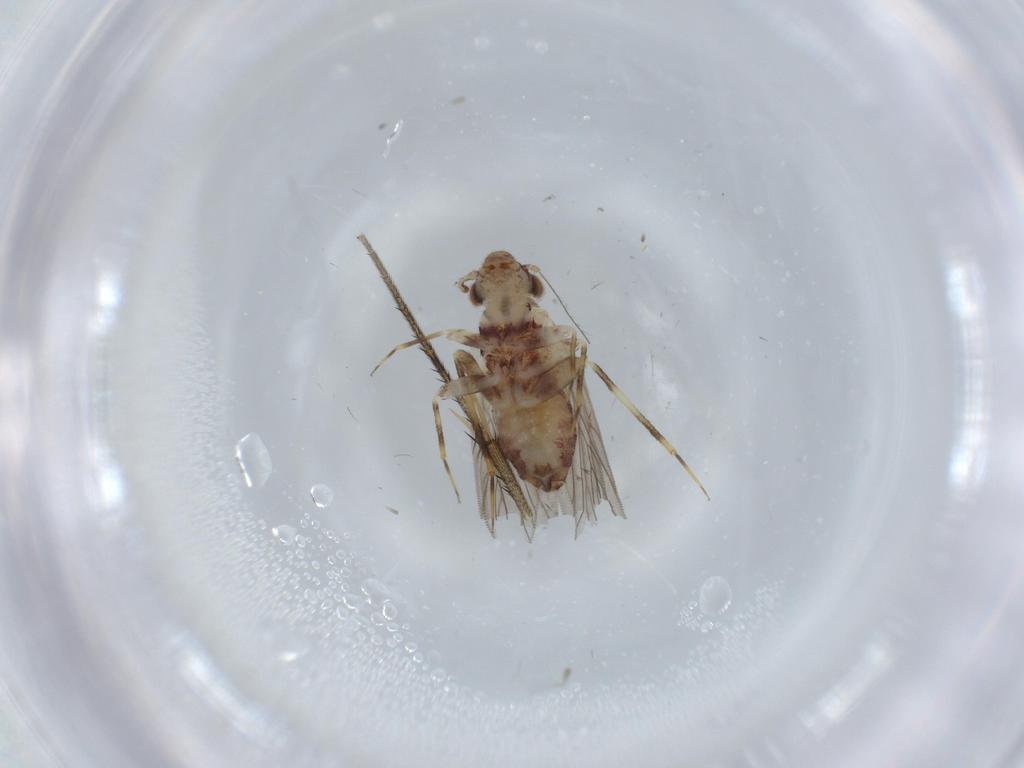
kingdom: Animalia
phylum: Arthropoda
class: Insecta
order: Psocodea
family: Lepidopsocidae
